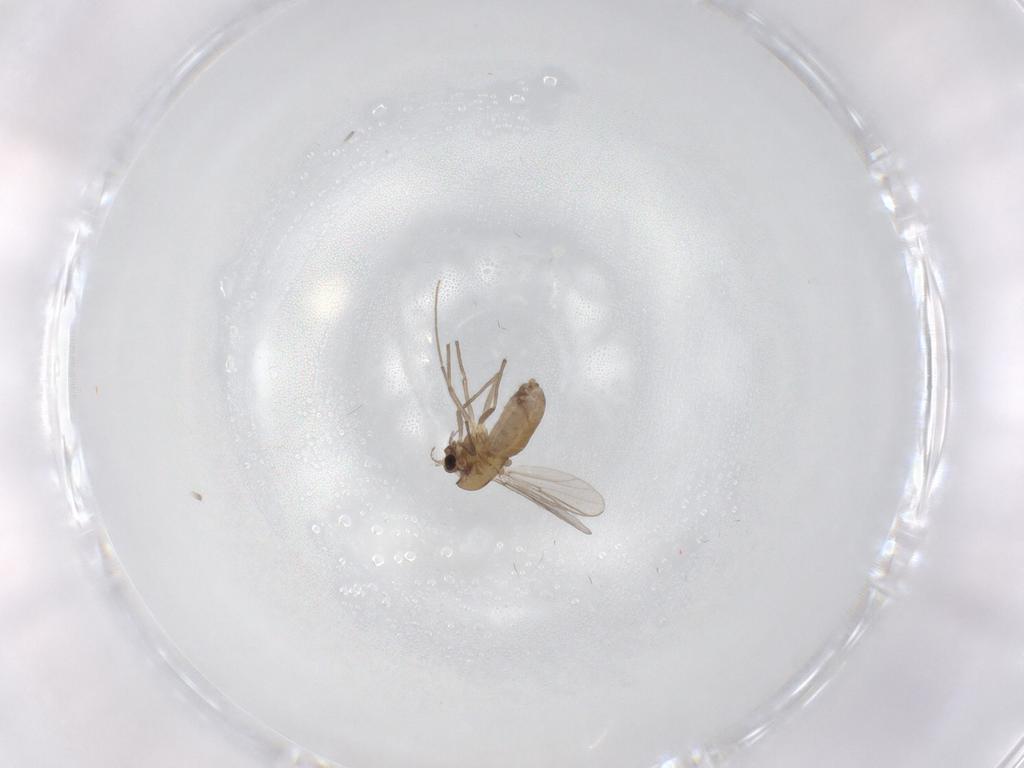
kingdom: Animalia
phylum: Arthropoda
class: Insecta
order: Diptera
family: Chironomidae
